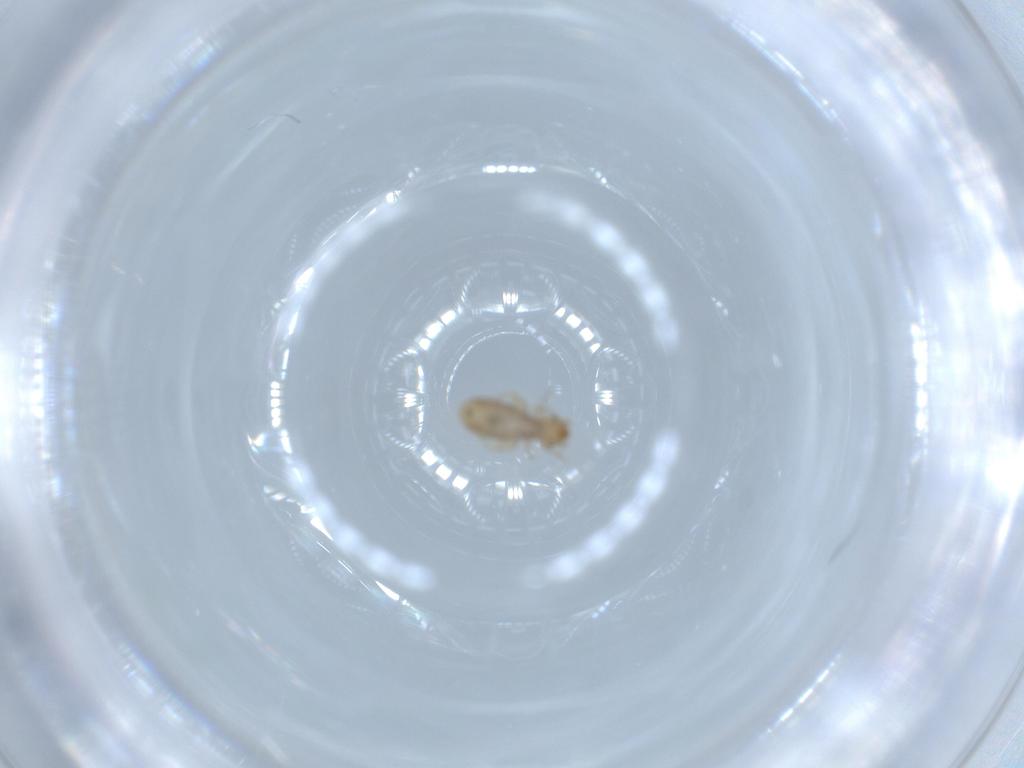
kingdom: Animalia
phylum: Arthropoda
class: Insecta
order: Psocodea
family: Liposcelididae
